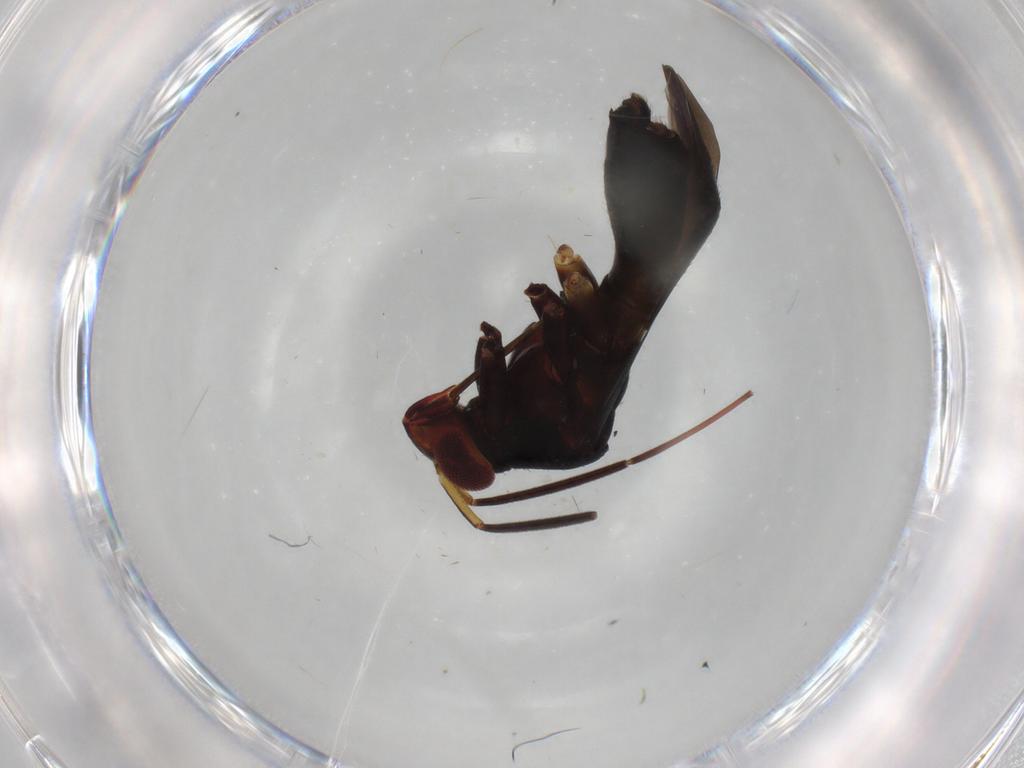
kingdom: Animalia
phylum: Arthropoda
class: Insecta
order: Hemiptera
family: Miridae
